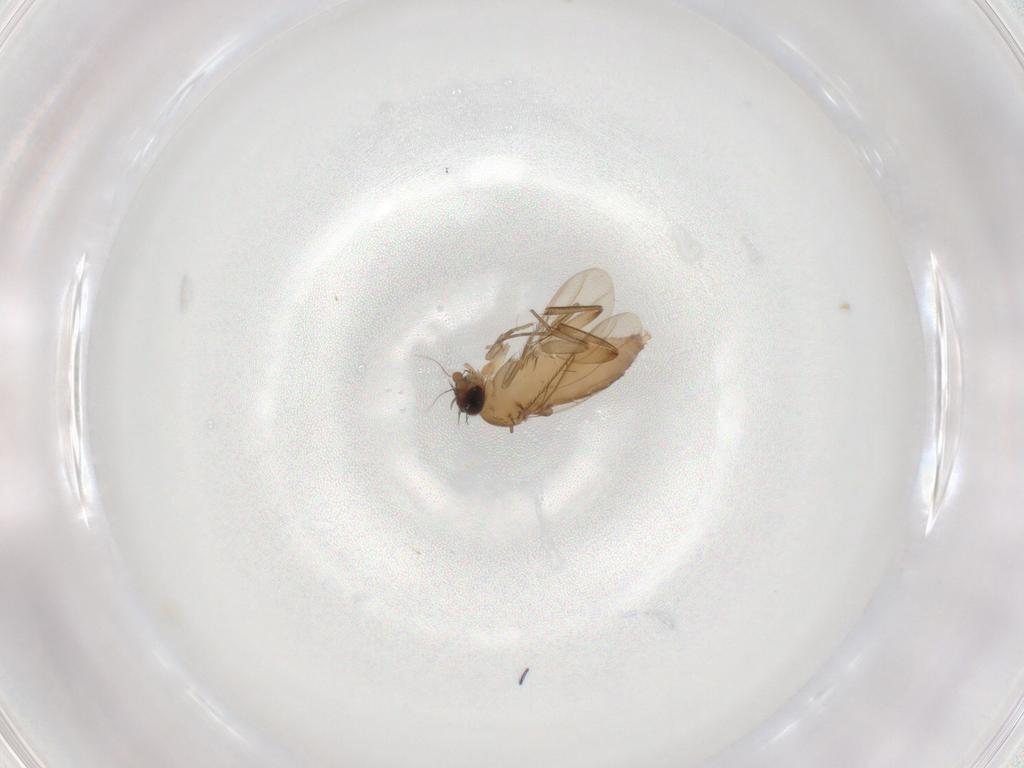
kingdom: Animalia
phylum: Arthropoda
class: Insecta
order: Diptera
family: Phoridae
